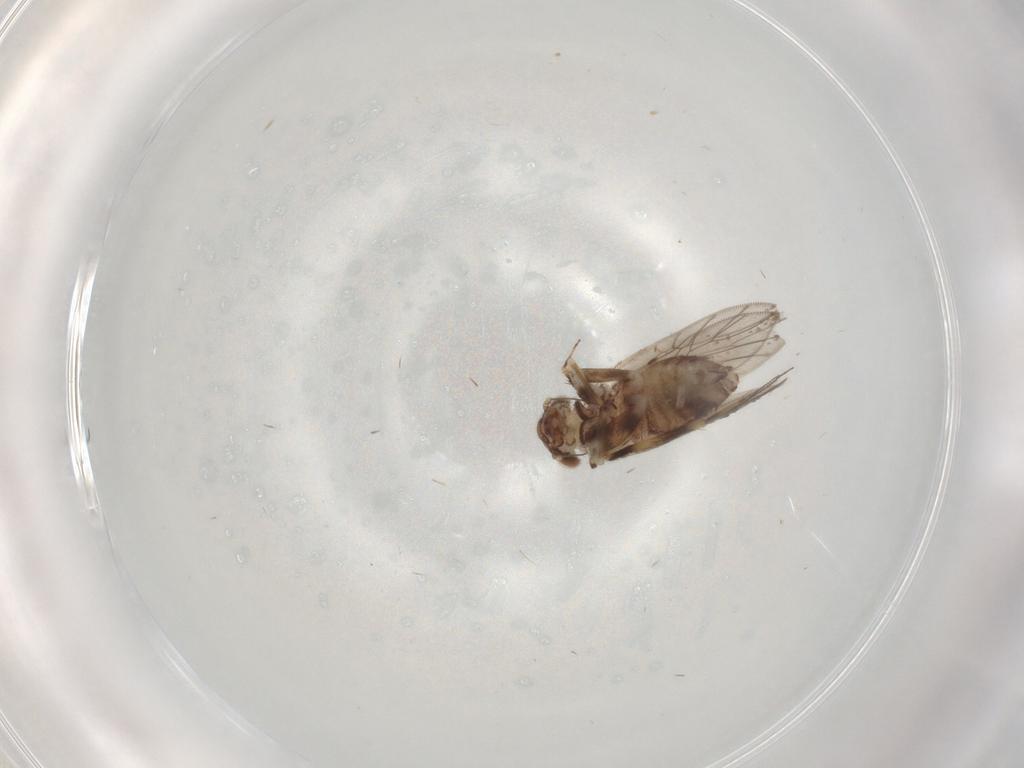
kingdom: Animalia
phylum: Arthropoda
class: Insecta
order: Psocodea
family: Lepidopsocidae
